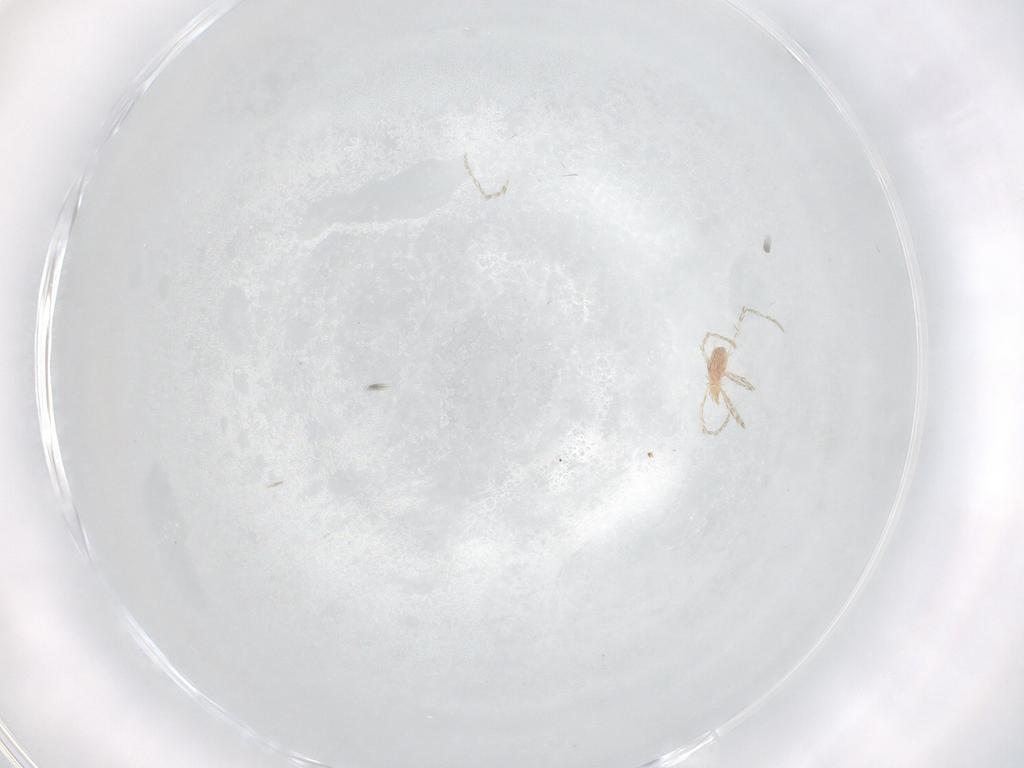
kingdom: Animalia
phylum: Arthropoda
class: Arachnida
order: Trombidiformes
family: Erythraeidae
